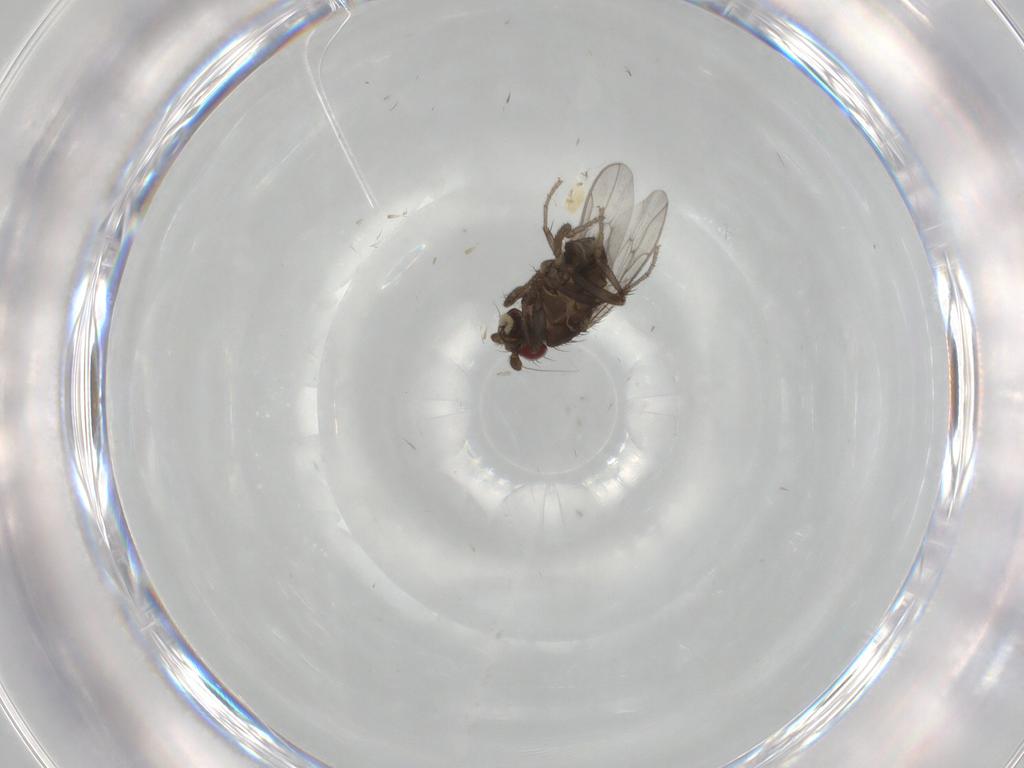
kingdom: Animalia
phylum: Arthropoda
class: Insecta
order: Diptera
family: Sphaeroceridae
